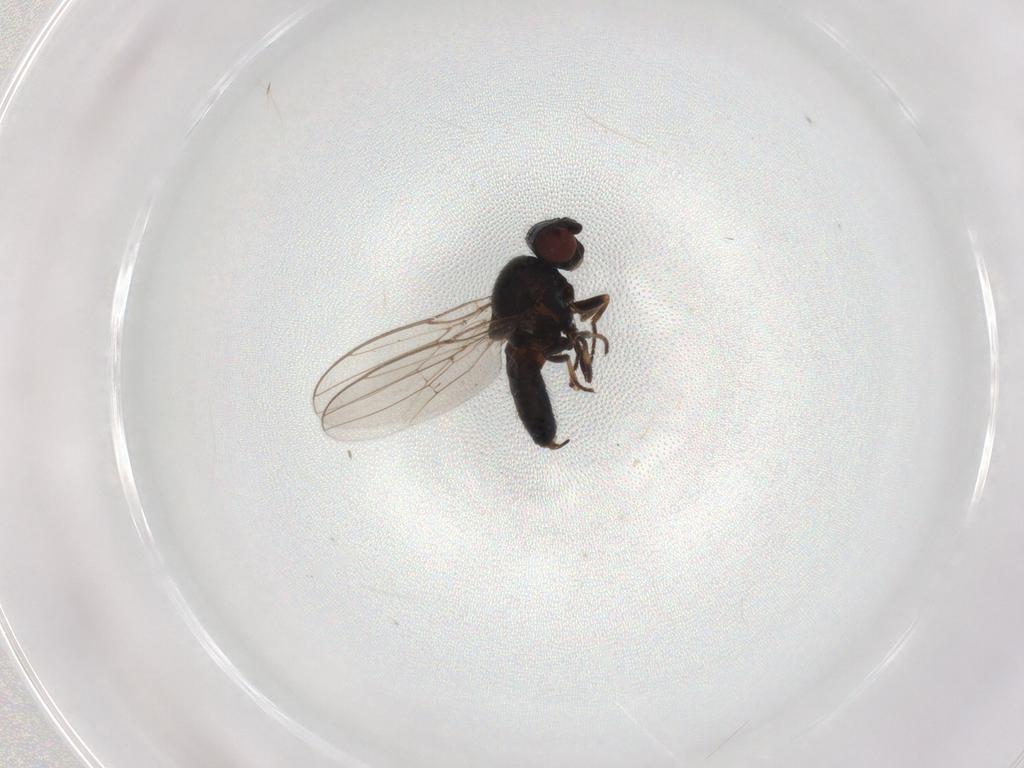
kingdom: Animalia
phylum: Arthropoda
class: Insecta
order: Diptera
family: Chloropidae
